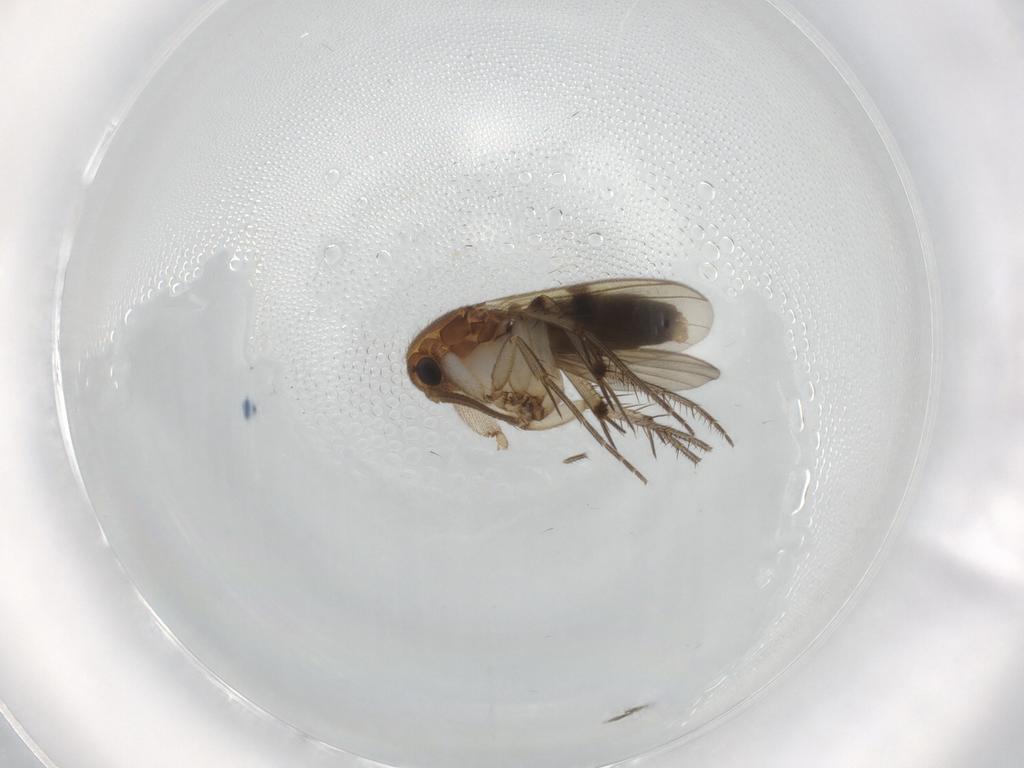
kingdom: Animalia
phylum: Arthropoda
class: Insecta
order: Diptera
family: Mycetophilidae
